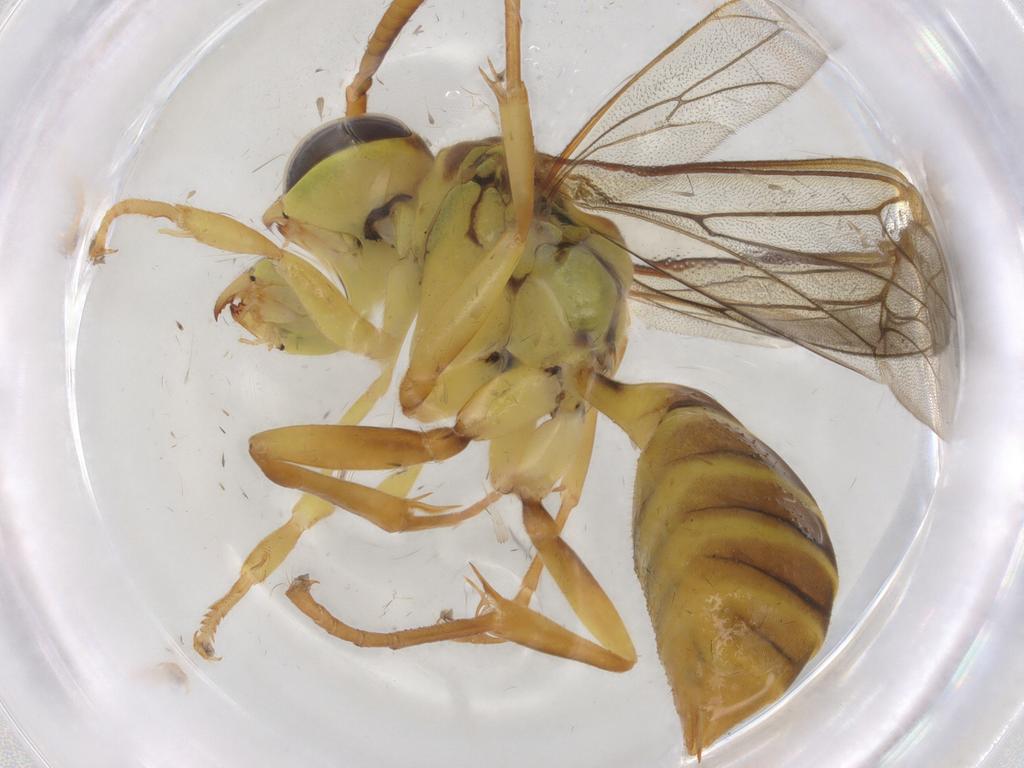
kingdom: Animalia
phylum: Arthropoda
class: Insecta
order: Hymenoptera
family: Vespidae
